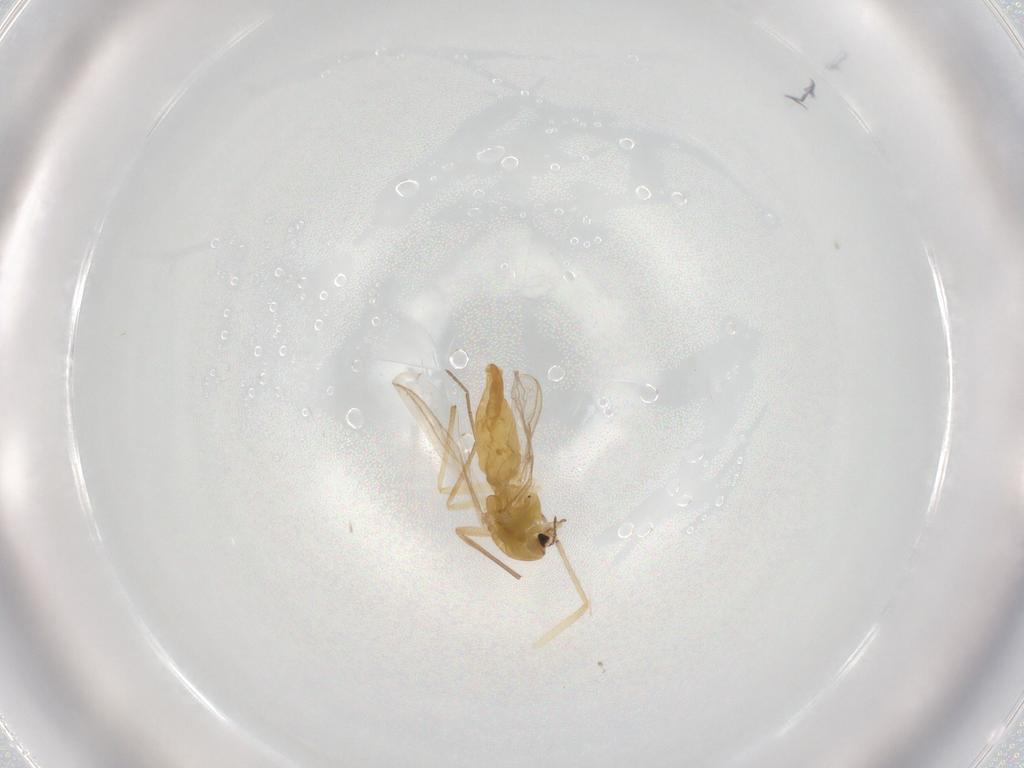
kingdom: Animalia
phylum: Arthropoda
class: Insecta
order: Diptera
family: Chironomidae
